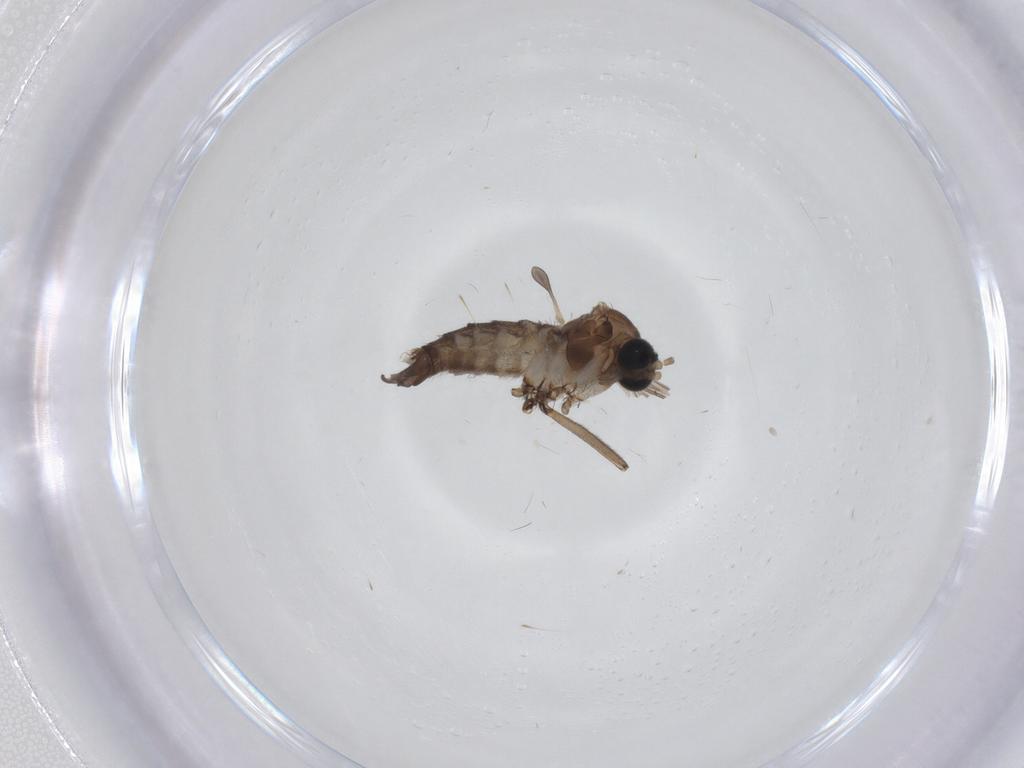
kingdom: Animalia
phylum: Arthropoda
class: Insecta
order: Diptera
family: Sciaridae
